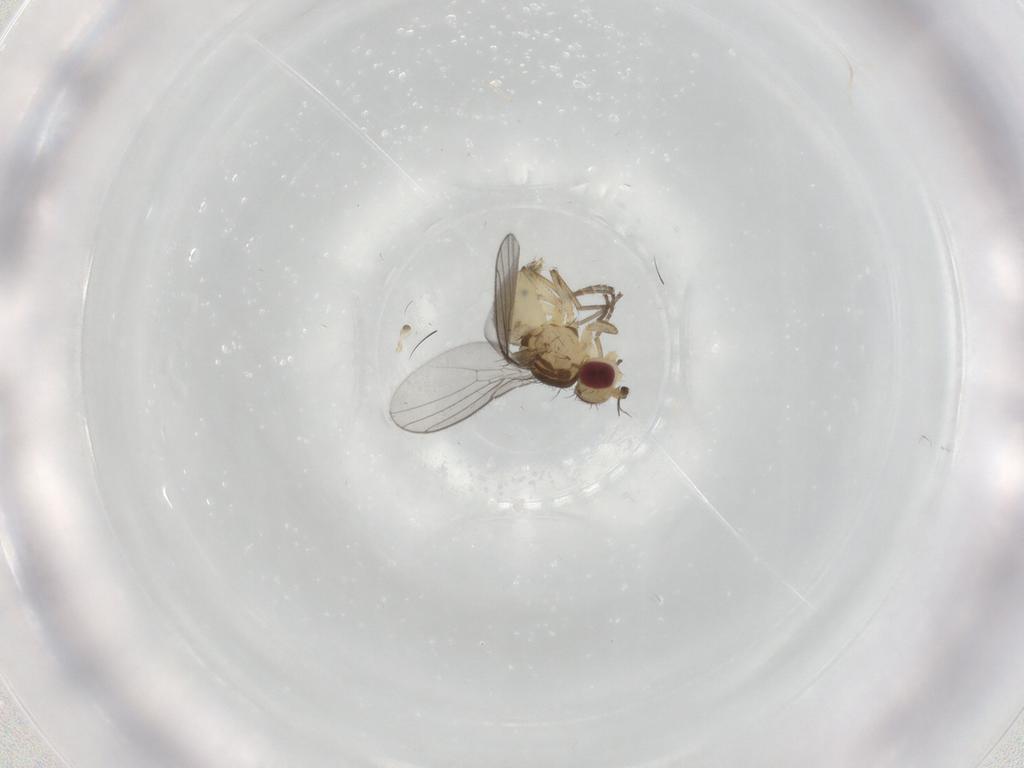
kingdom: Animalia
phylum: Arthropoda
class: Insecta
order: Diptera
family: Agromyzidae
